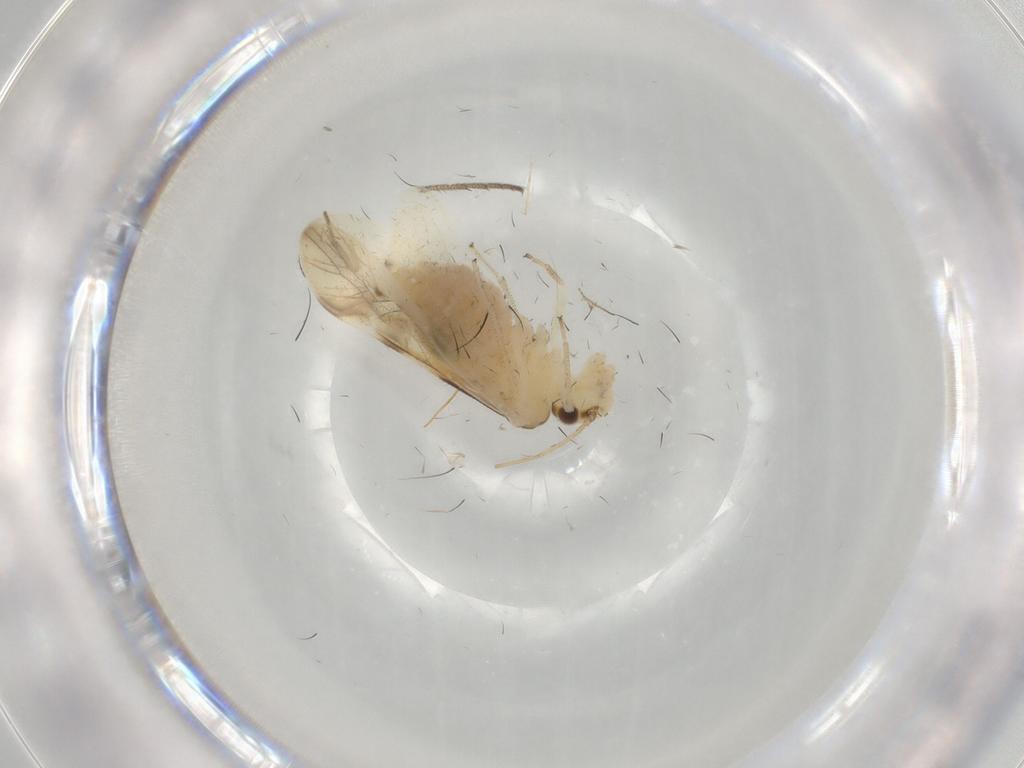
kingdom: Animalia
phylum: Arthropoda
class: Insecta
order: Psocodea
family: Caeciliusidae
